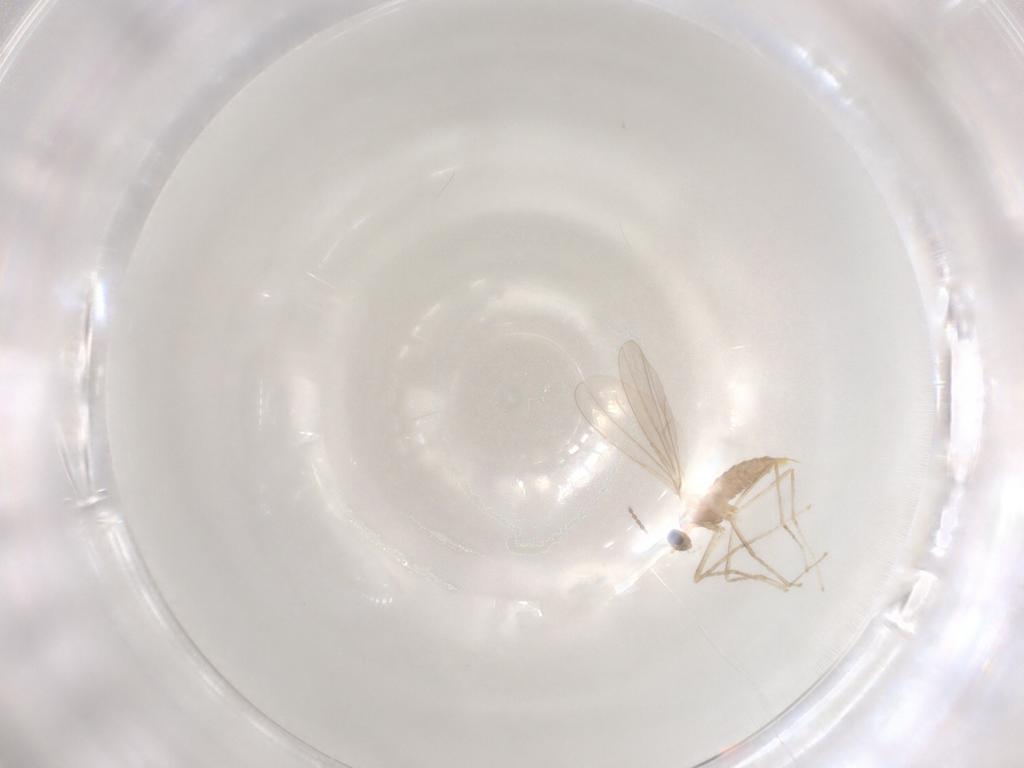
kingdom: Animalia
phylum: Arthropoda
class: Insecta
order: Diptera
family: Cecidomyiidae
